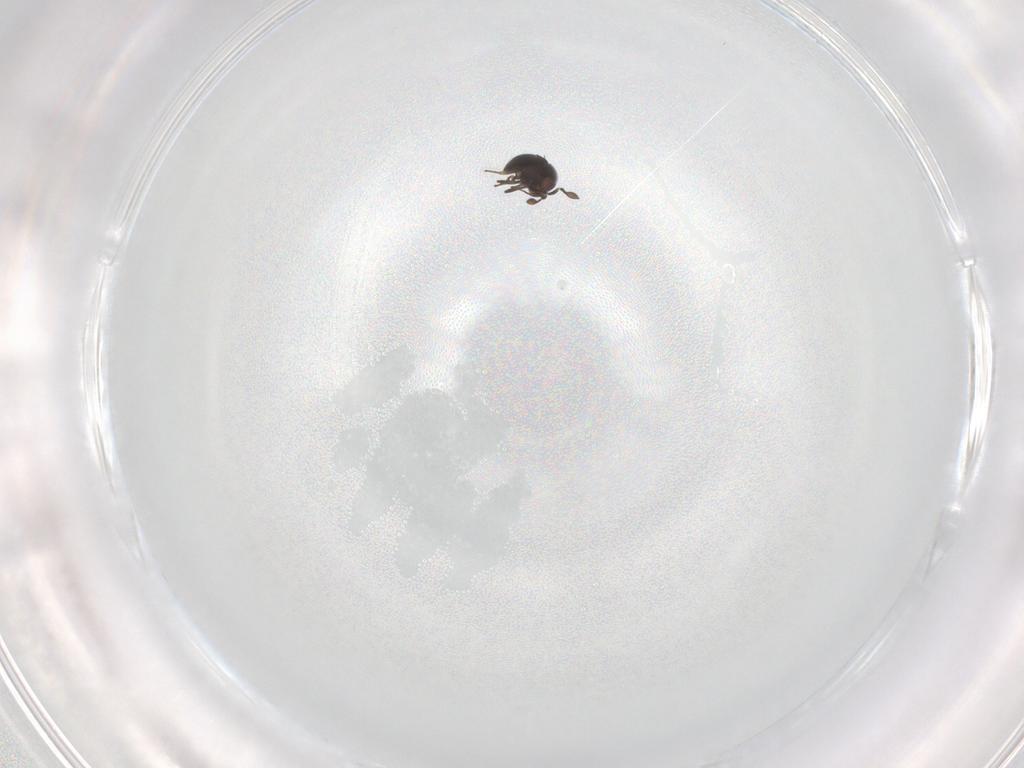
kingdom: Animalia
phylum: Arthropoda
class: Insecta
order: Hymenoptera
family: Scelionidae
